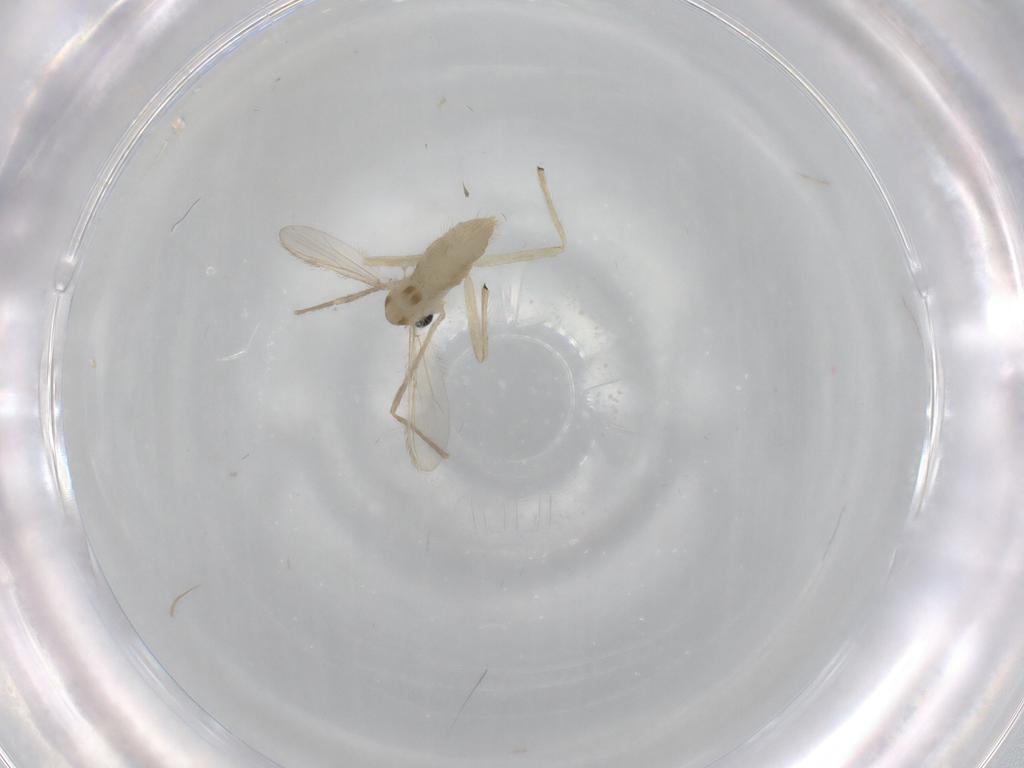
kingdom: Animalia
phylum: Arthropoda
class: Insecta
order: Diptera
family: Chironomidae
